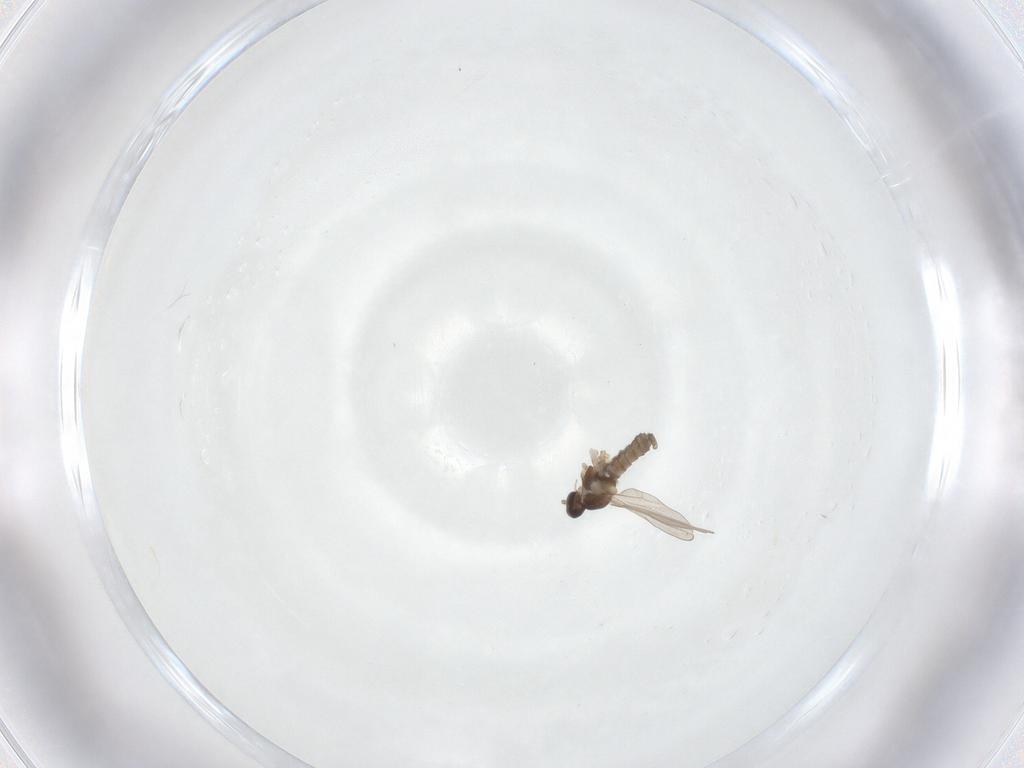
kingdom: Animalia
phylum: Arthropoda
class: Insecta
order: Diptera
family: Cecidomyiidae
